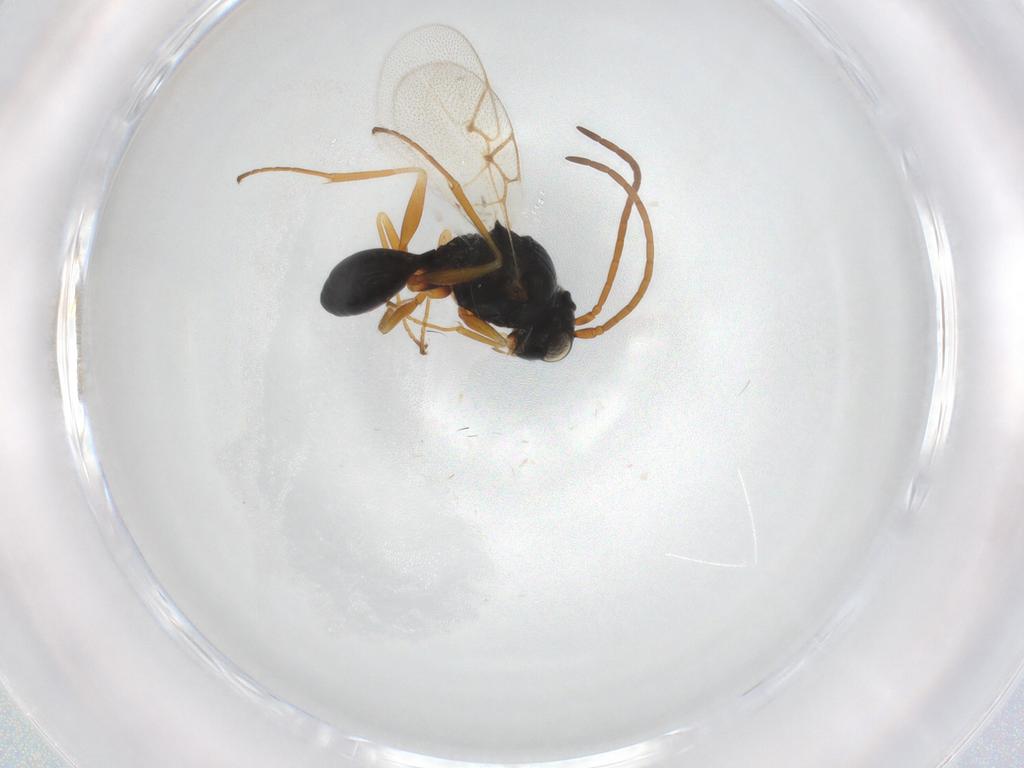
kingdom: Animalia
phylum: Arthropoda
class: Insecta
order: Hymenoptera
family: Figitidae
